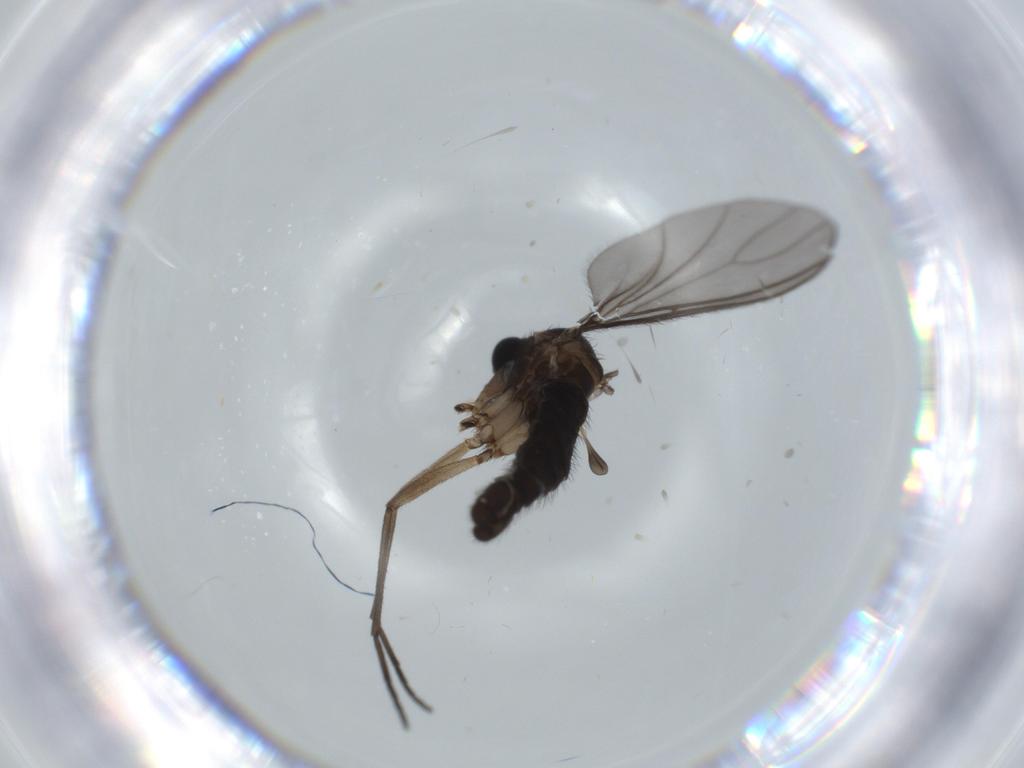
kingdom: Animalia
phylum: Arthropoda
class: Insecta
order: Diptera
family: Sciaridae
